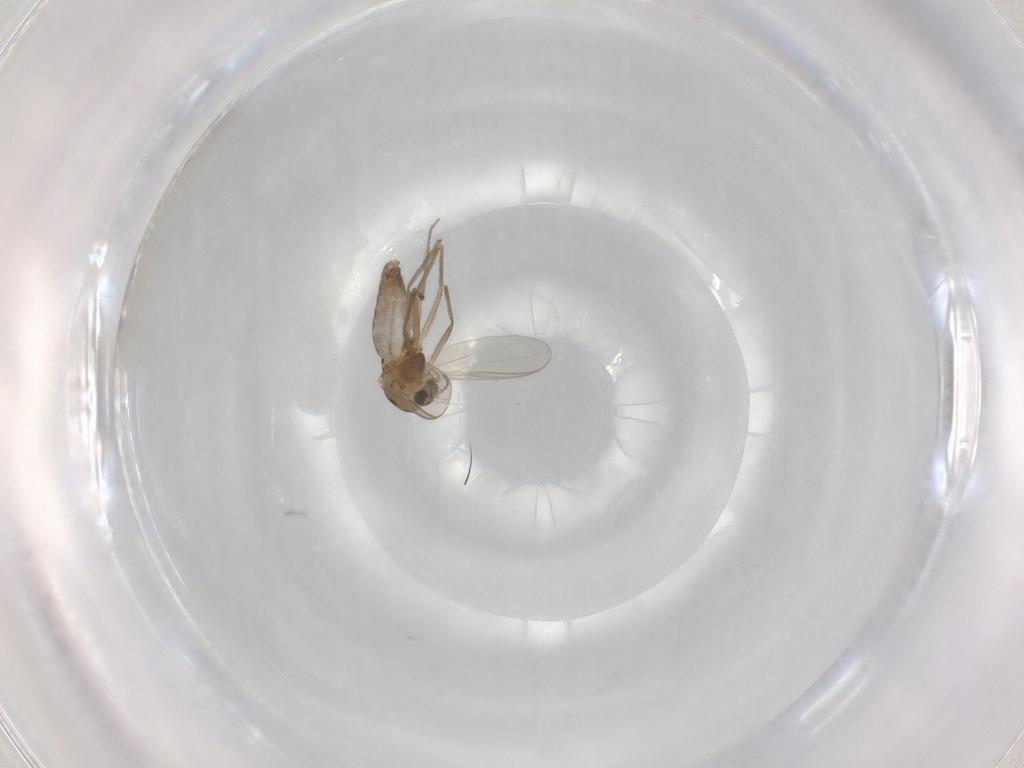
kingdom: Animalia
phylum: Arthropoda
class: Insecta
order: Diptera
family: Chironomidae
